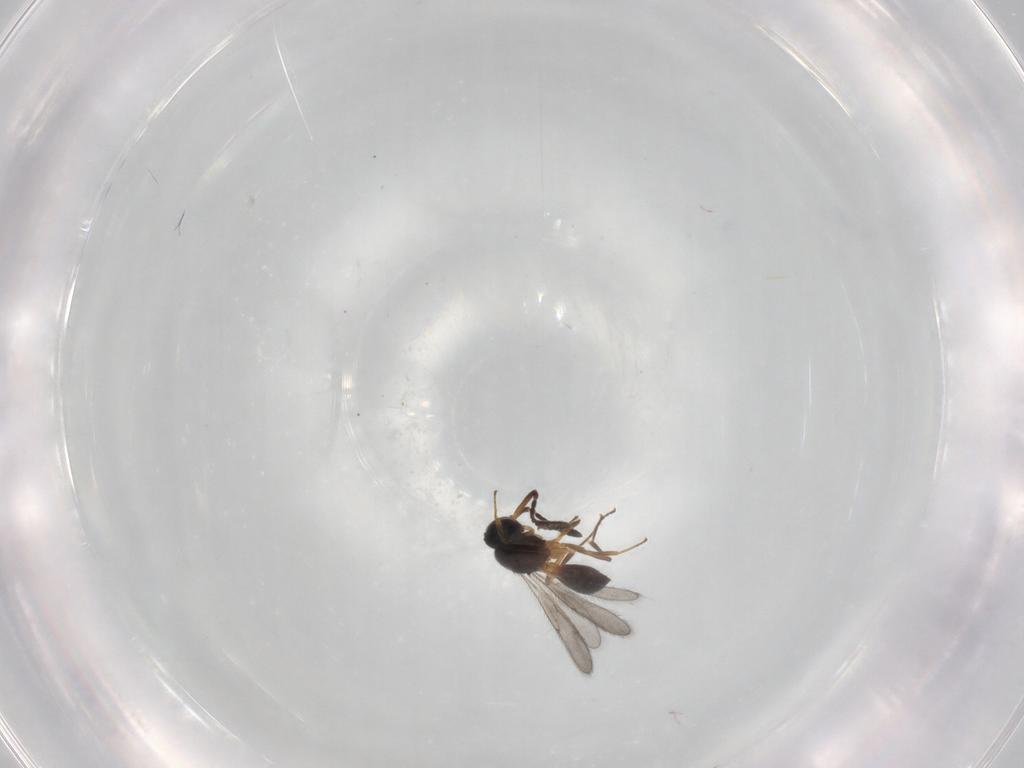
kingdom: Animalia
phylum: Arthropoda
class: Insecta
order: Hymenoptera
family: Scelionidae
